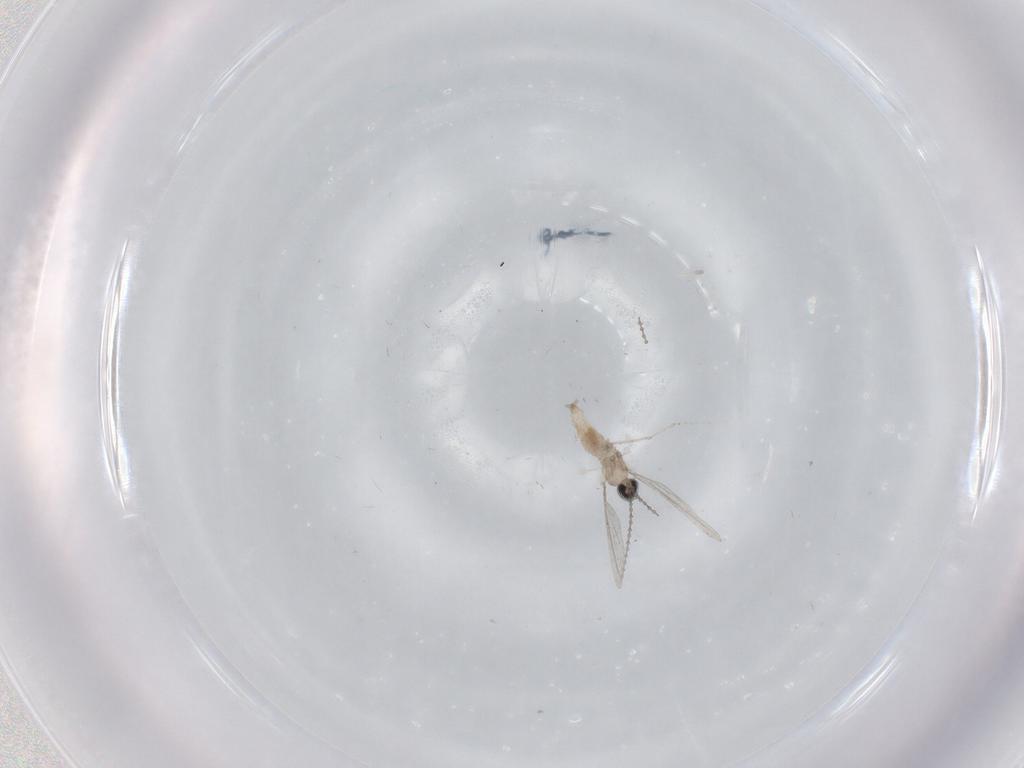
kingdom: Animalia
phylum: Arthropoda
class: Insecta
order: Diptera
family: Cecidomyiidae
